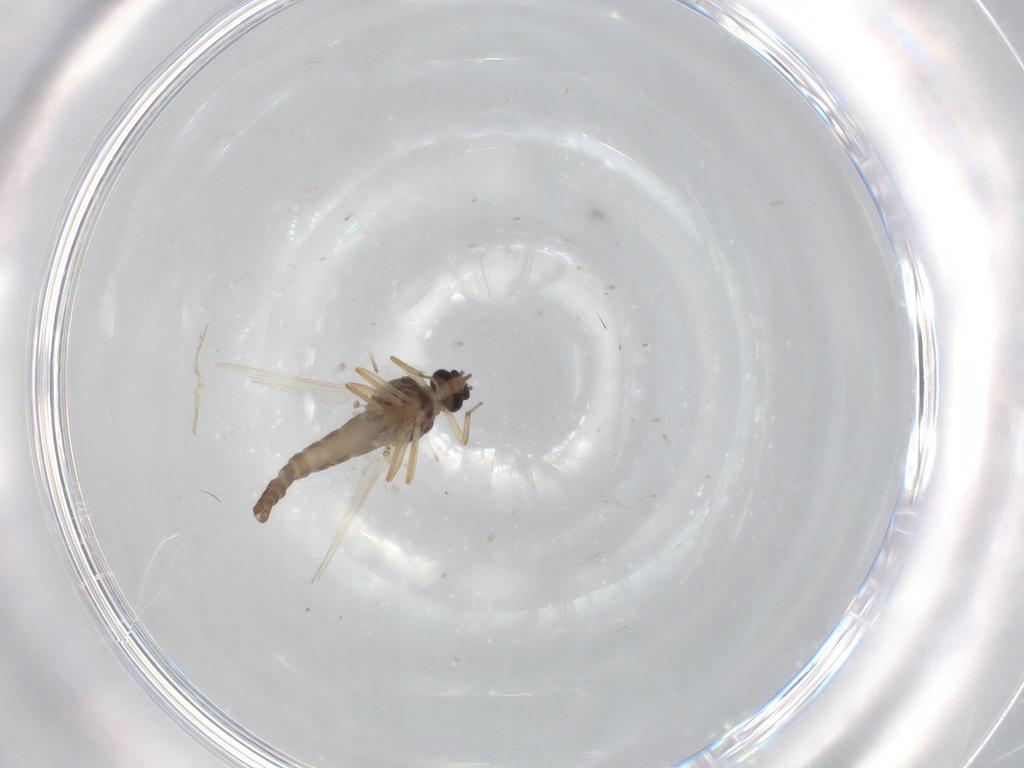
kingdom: Animalia
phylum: Arthropoda
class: Insecta
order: Diptera
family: Ceratopogonidae
